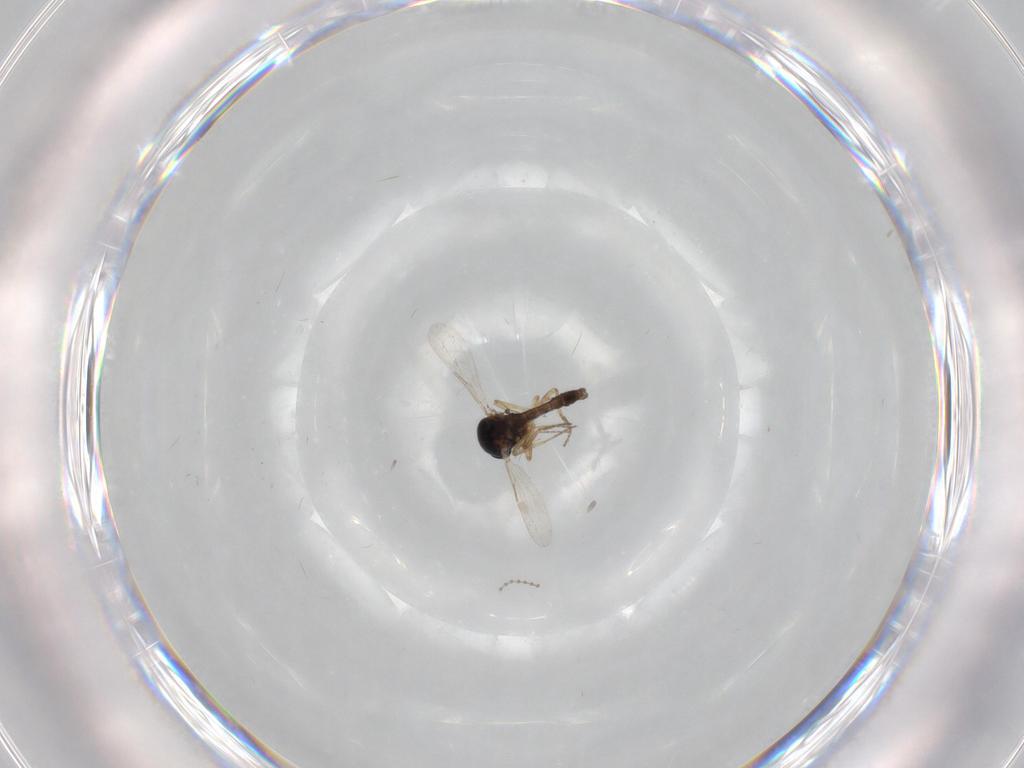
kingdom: Animalia
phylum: Arthropoda
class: Insecta
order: Diptera
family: Ceratopogonidae
